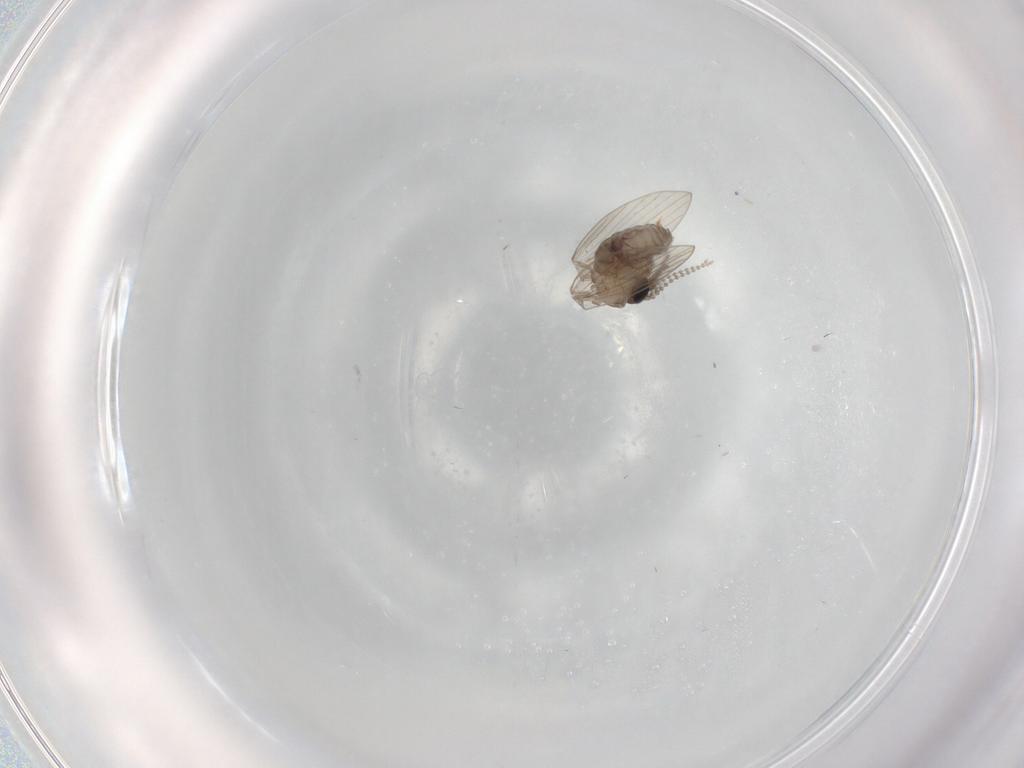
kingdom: Animalia
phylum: Arthropoda
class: Insecta
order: Diptera
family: Psychodidae
